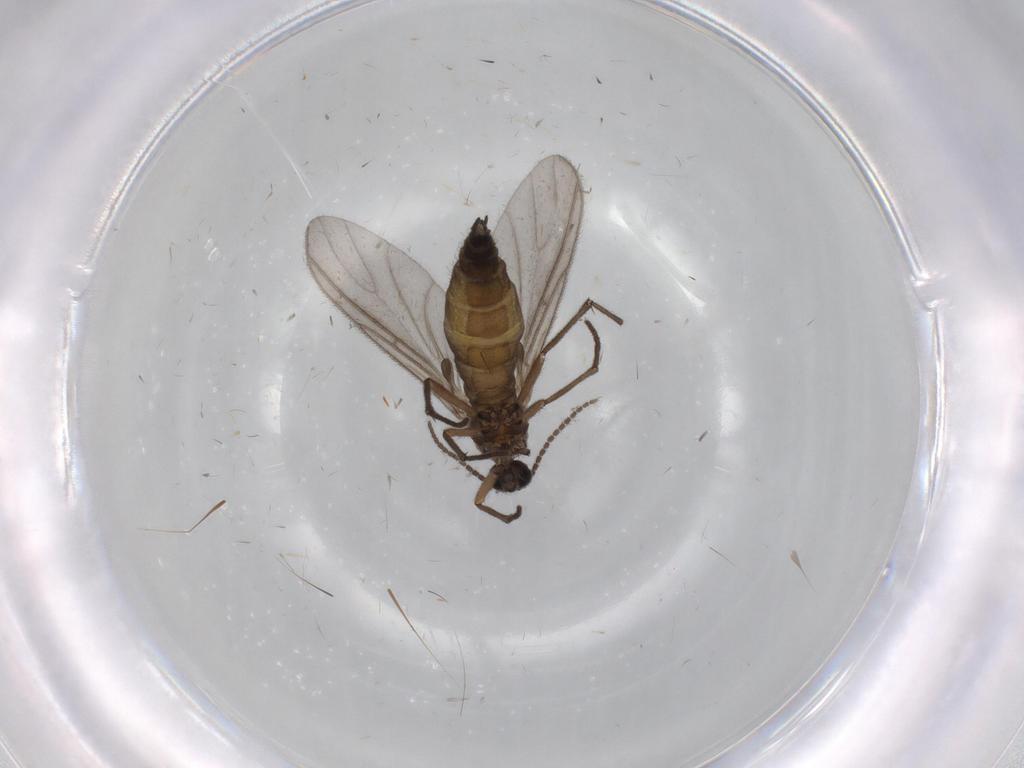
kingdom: Animalia
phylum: Arthropoda
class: Insecta
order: Diptera
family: Sciaridae
